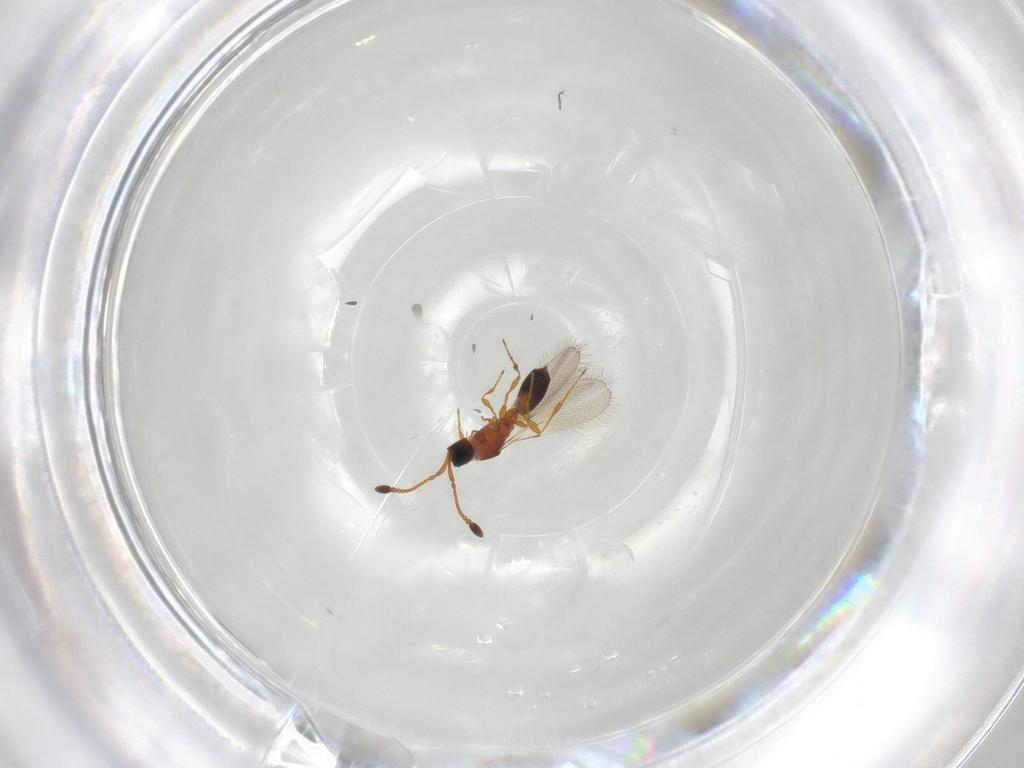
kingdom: Animalia
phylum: Arthropoda
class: Insecta
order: Hymenoptera
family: Diapriidae
